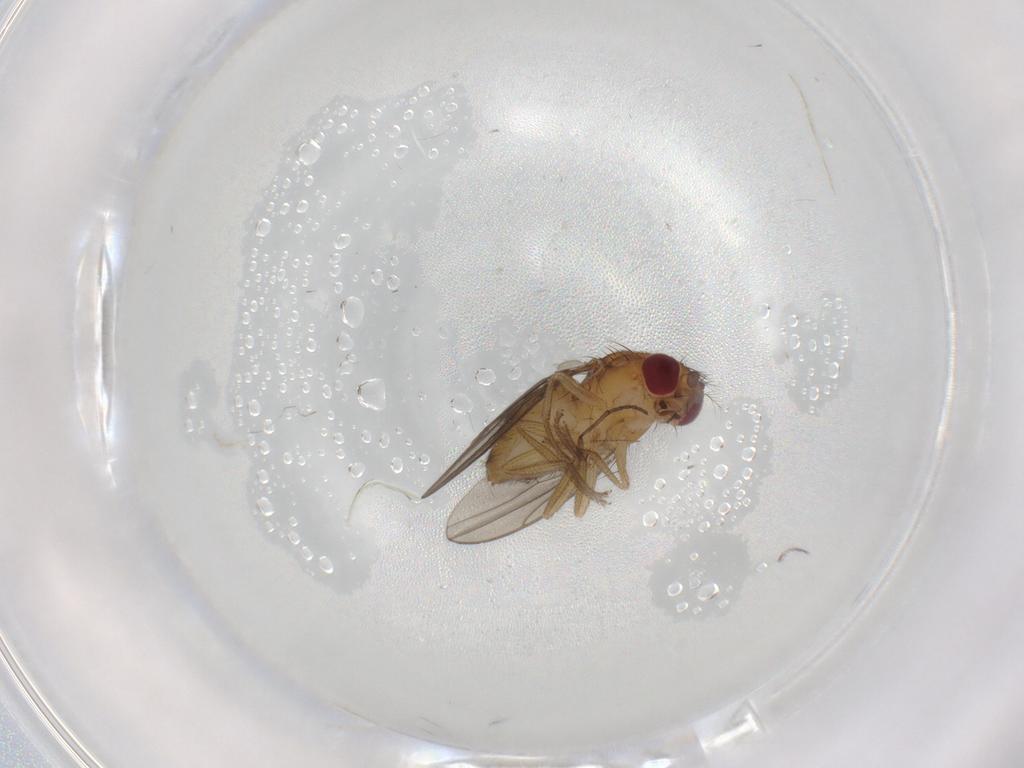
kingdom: Animalia
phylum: Arthropoda
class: Insecta
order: Diptera
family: Drosophilidae
